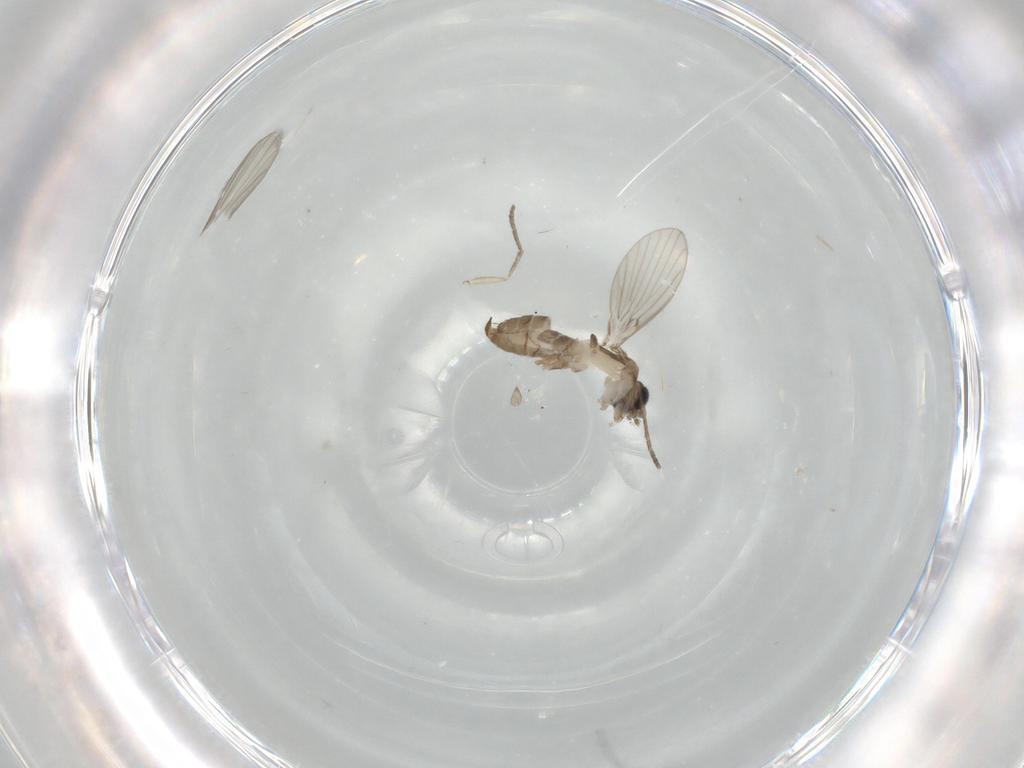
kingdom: Animalia
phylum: Arthropoda
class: Insecta
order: Diptera
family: Psychodidae
